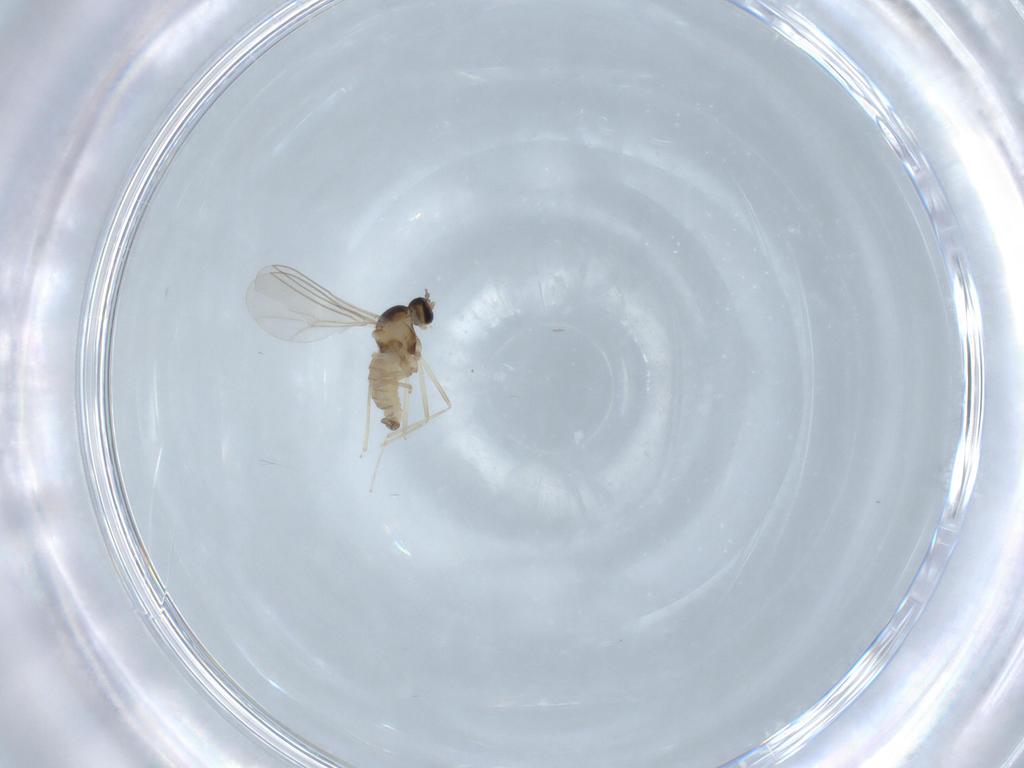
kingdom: Animalia
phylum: Arthropoda
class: Insecta
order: Diptera
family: Cecidomyiidae
